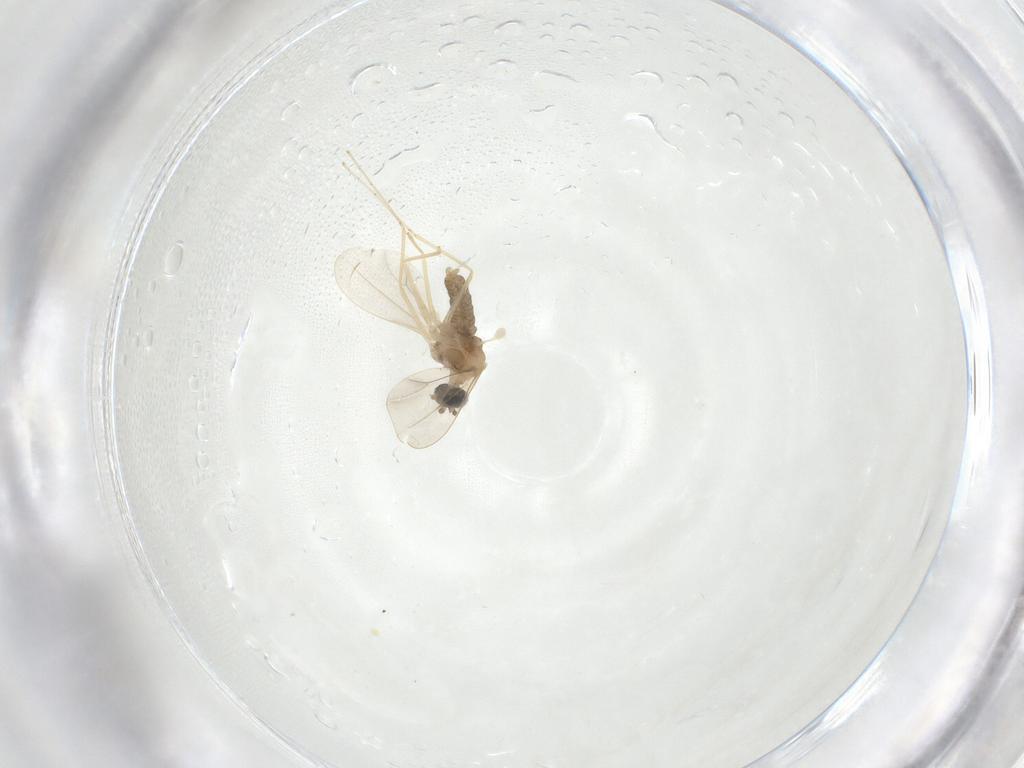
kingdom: Animalia
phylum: Arthropoda
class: Insecta
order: Diptera
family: Cecidomyiidae
